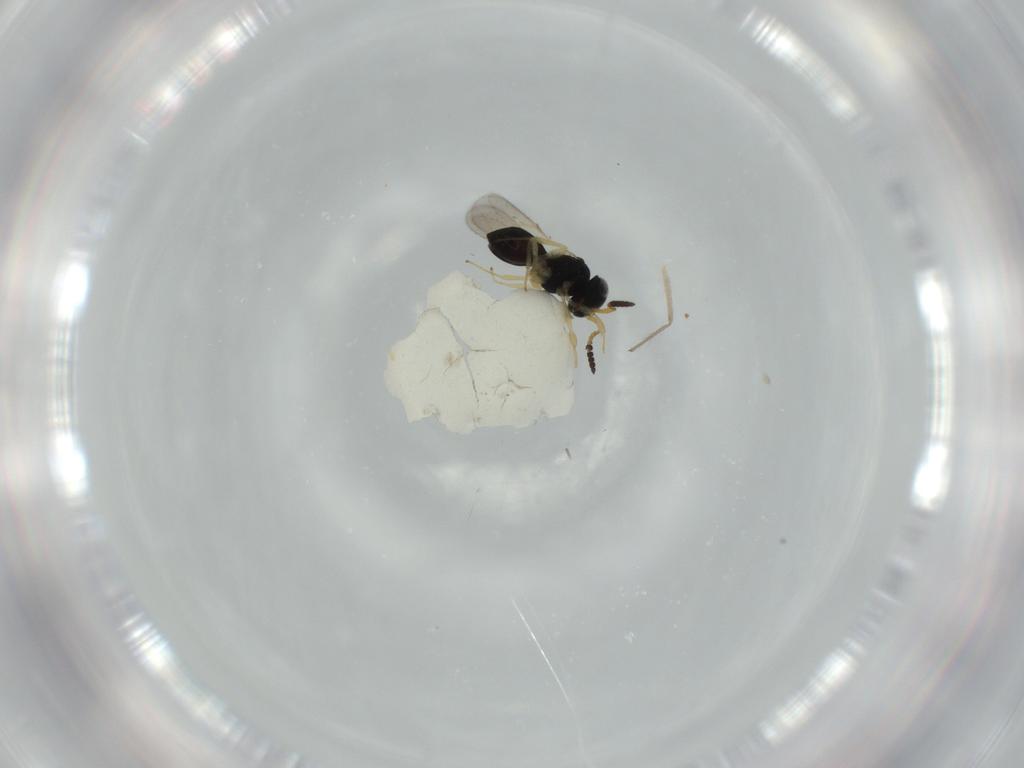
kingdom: Animalia
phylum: Arthropoda
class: Insecta
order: Hymenoptera
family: Scelionidae
